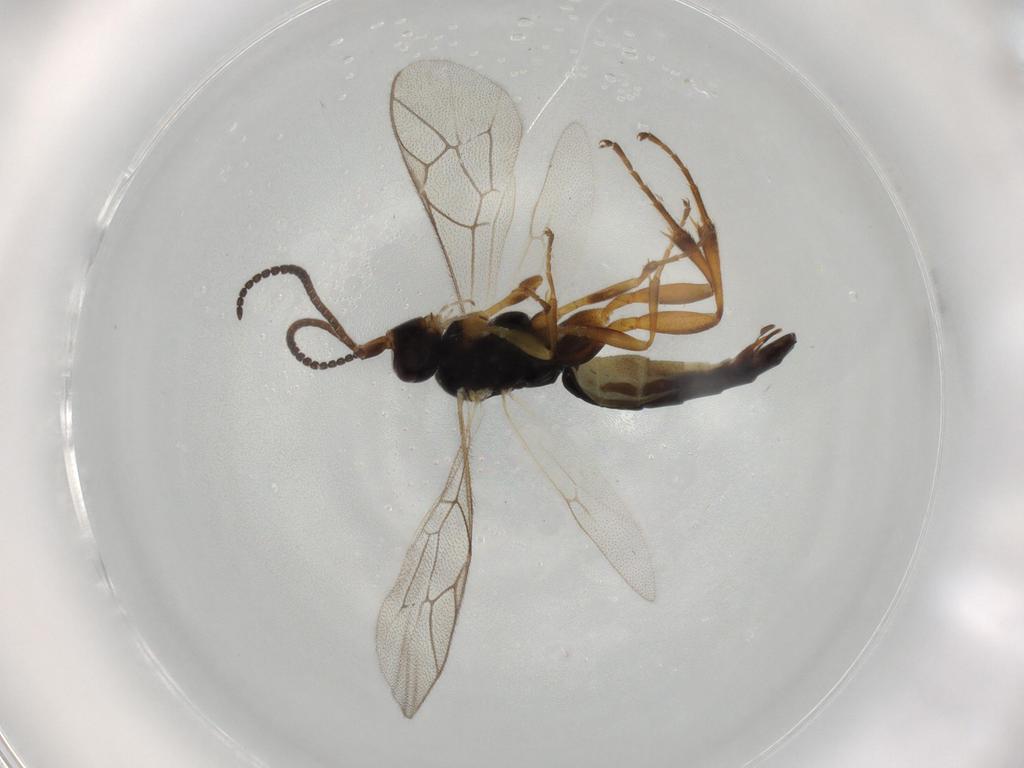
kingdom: Animalia
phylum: Arthropoda
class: Insecta
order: Hymenoptera
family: Ichneumonidae
